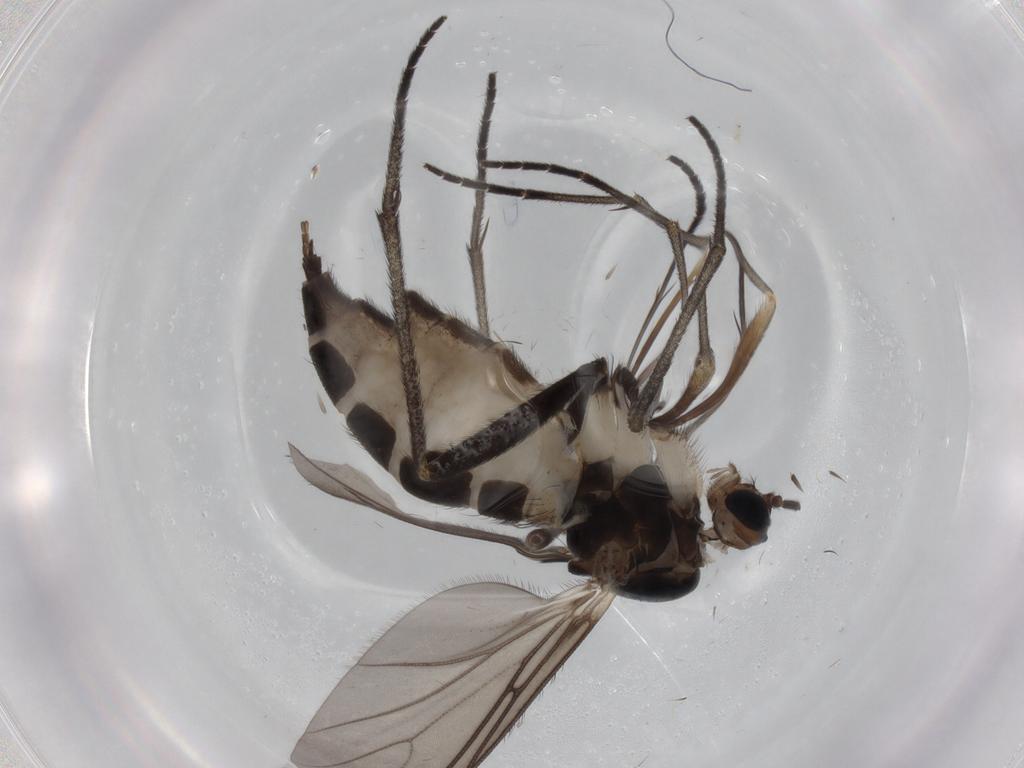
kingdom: Animalia
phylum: Arthropoda
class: Insecta
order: Diptera
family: Sciaridae
